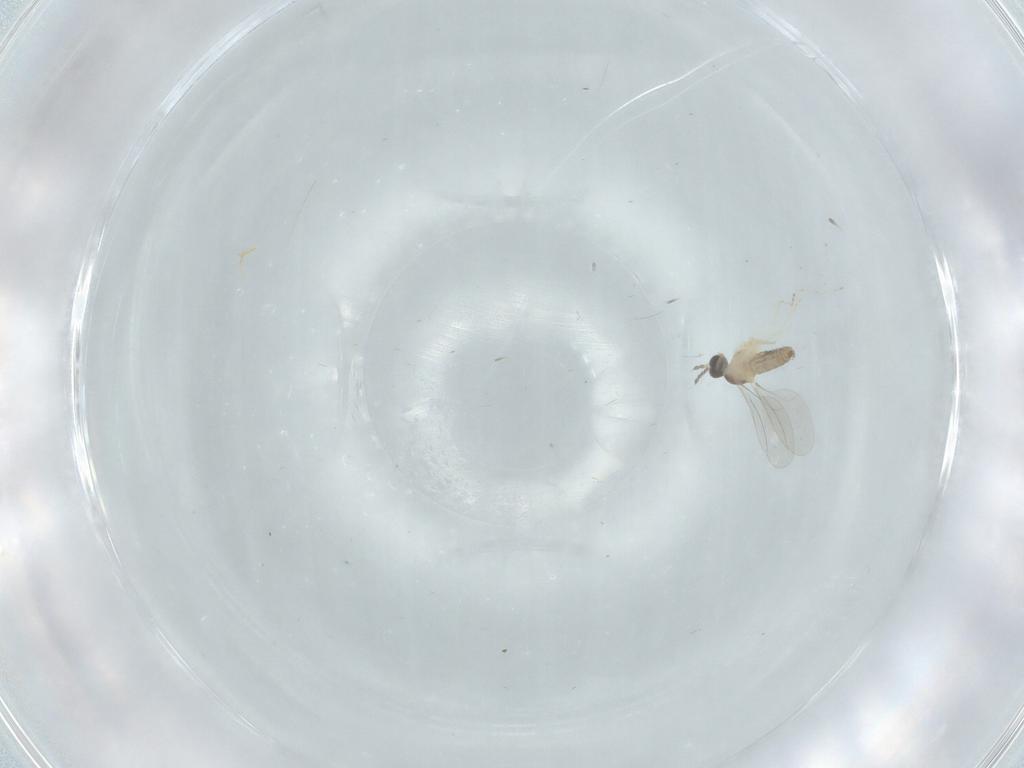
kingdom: Animalia
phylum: Arthropoda
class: Insecta
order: Diptera
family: Cecidomyiidae
